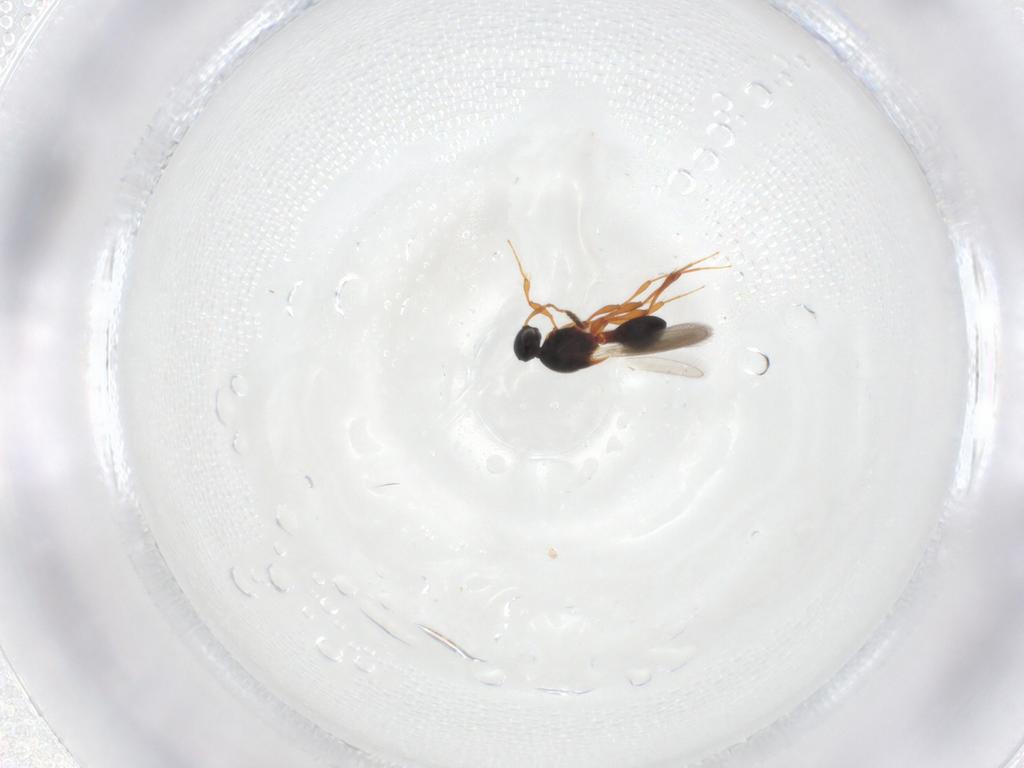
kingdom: Animalia
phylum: Arthropoda
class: Insecta
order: Hymenoptera
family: Platygastridae
